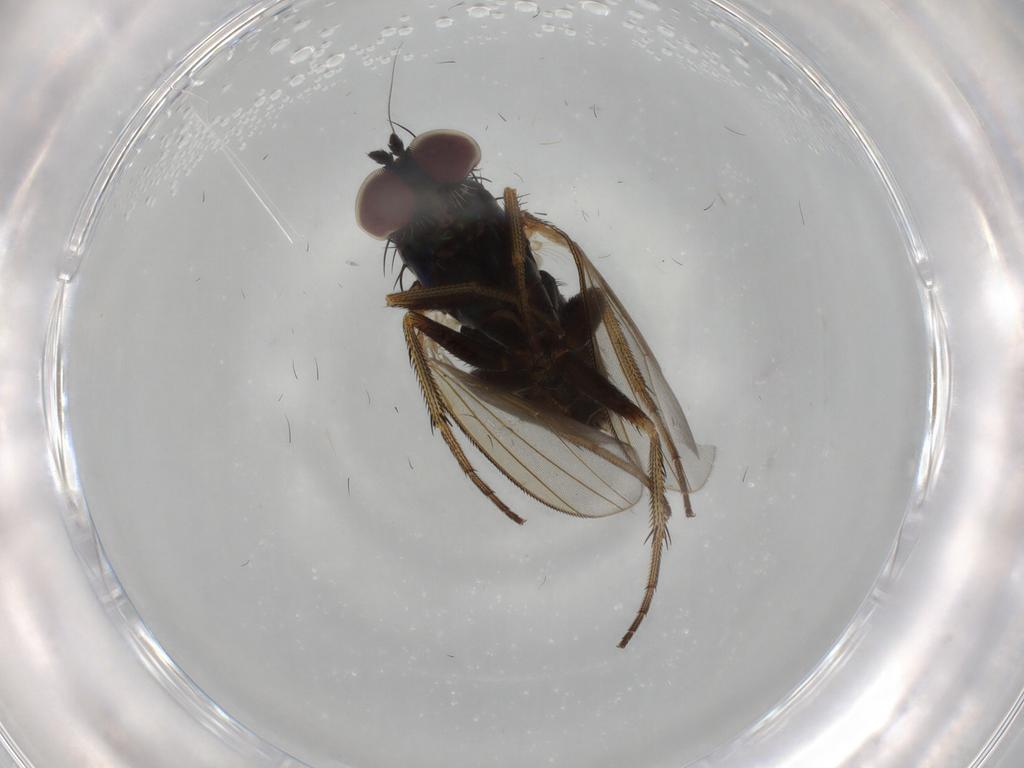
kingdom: Animalia
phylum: Arthropoda
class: Insecta
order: Diptera
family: Dolichopodidae
